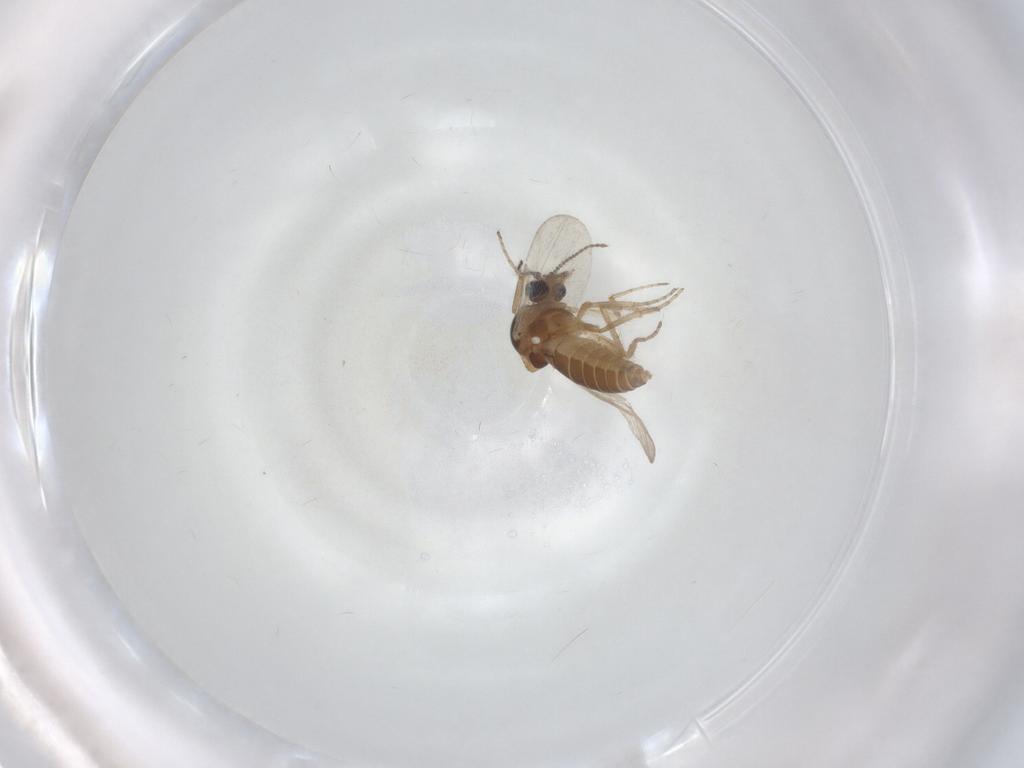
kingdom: Animalia
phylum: Arthropoda
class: Insecta
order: Diptera
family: Ceratopogonidae
